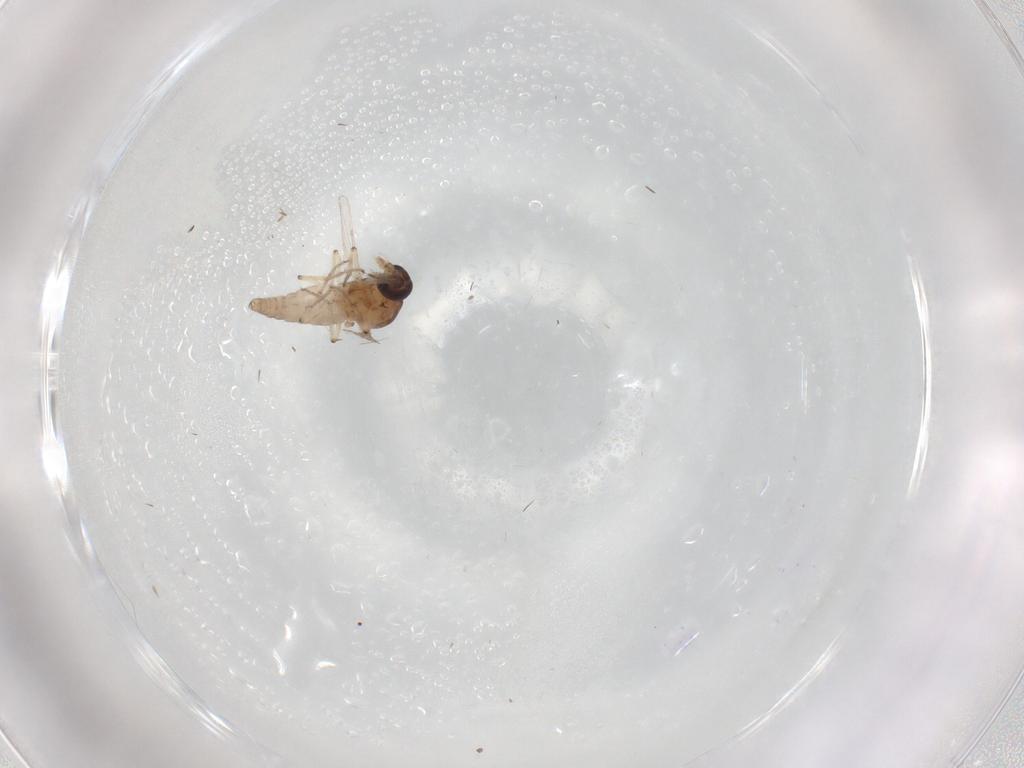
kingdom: Animalia
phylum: Arthropoda
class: Insecta
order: Diptera
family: Ceratopogonidae
